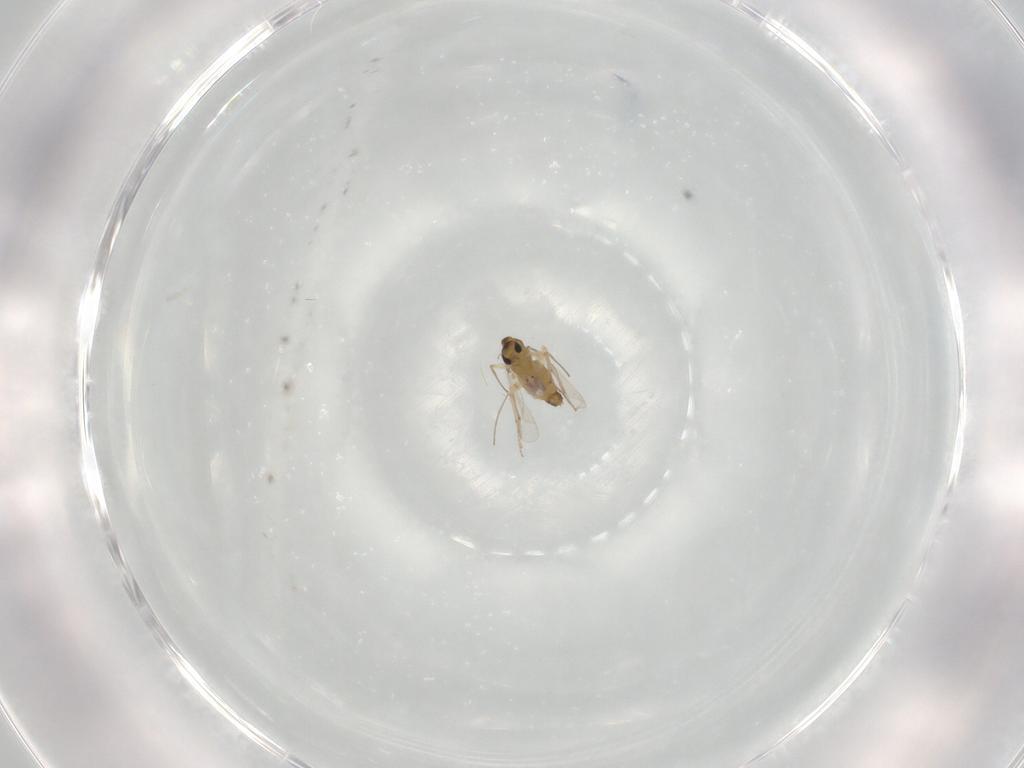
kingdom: Animalia
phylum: Arthropoda
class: Insecta
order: Diptera
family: Chironomidae
